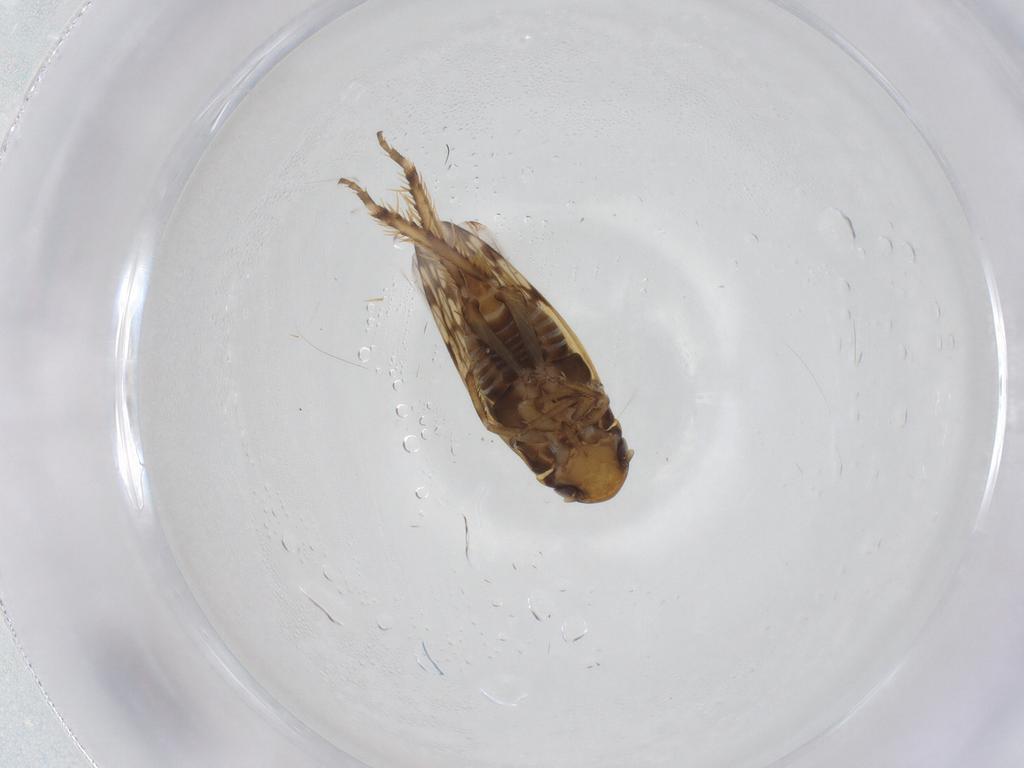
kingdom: Animalia
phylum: Arthropoda
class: Insecta
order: Hemiptera
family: Cicadellidae
